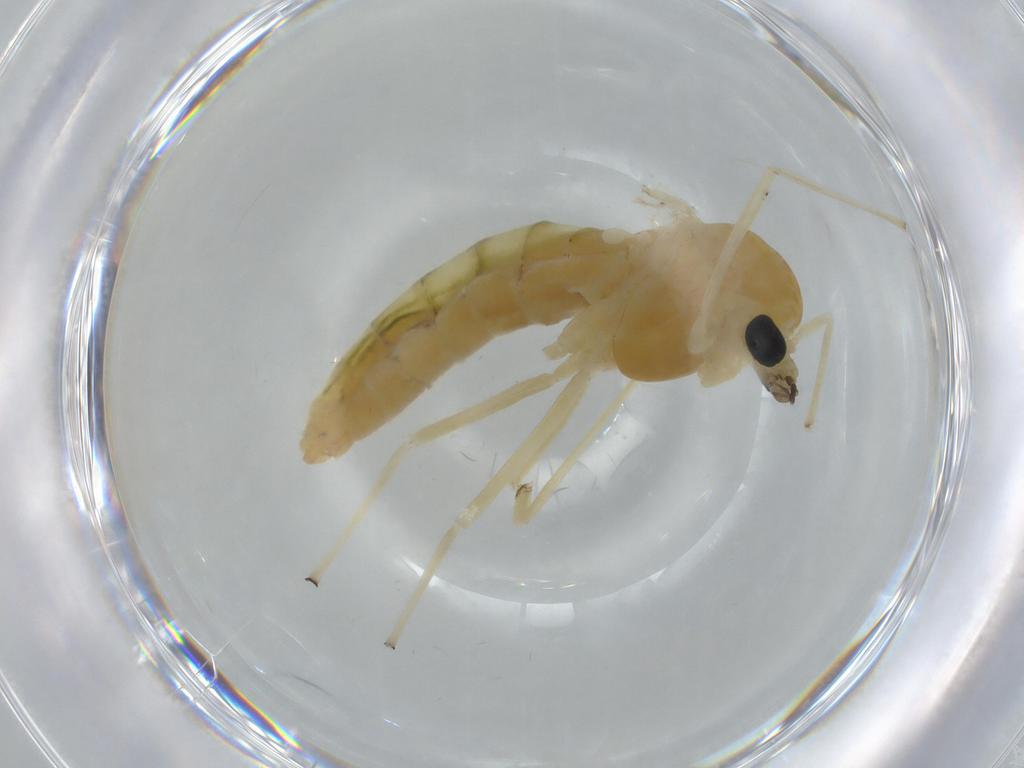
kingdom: Animalia
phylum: Arthropoda
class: Insecta
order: Diptera
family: Chironomidae
